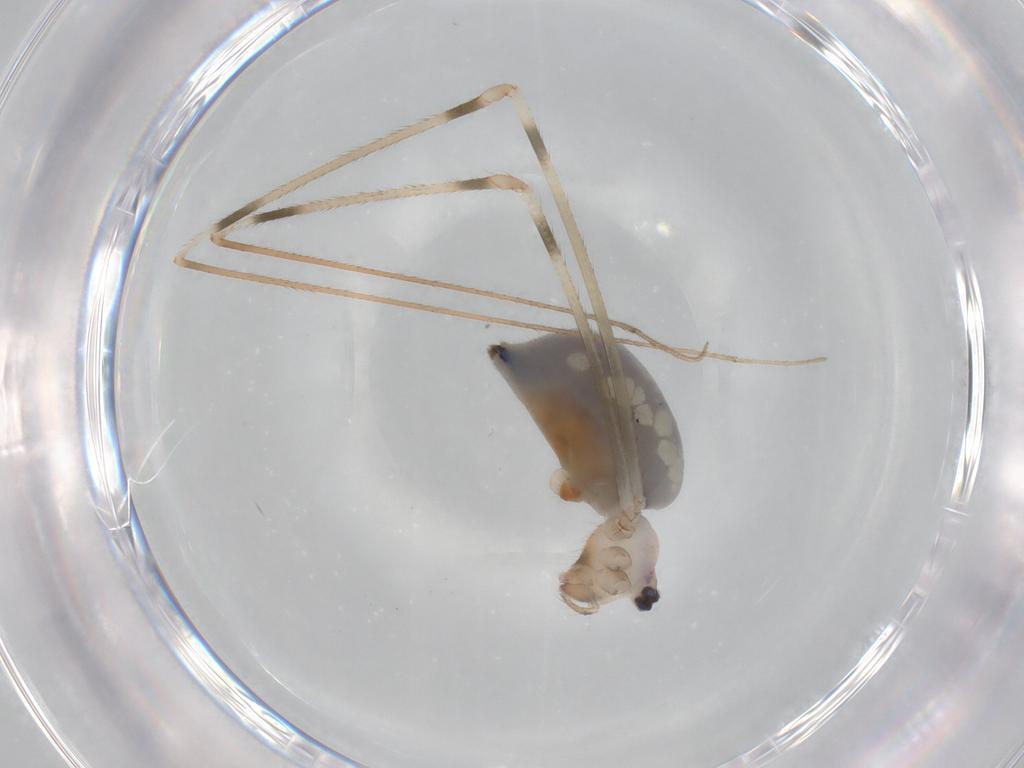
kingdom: Animalia
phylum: Arthropoda
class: Arachnida
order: Araneae
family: Pholcidae
